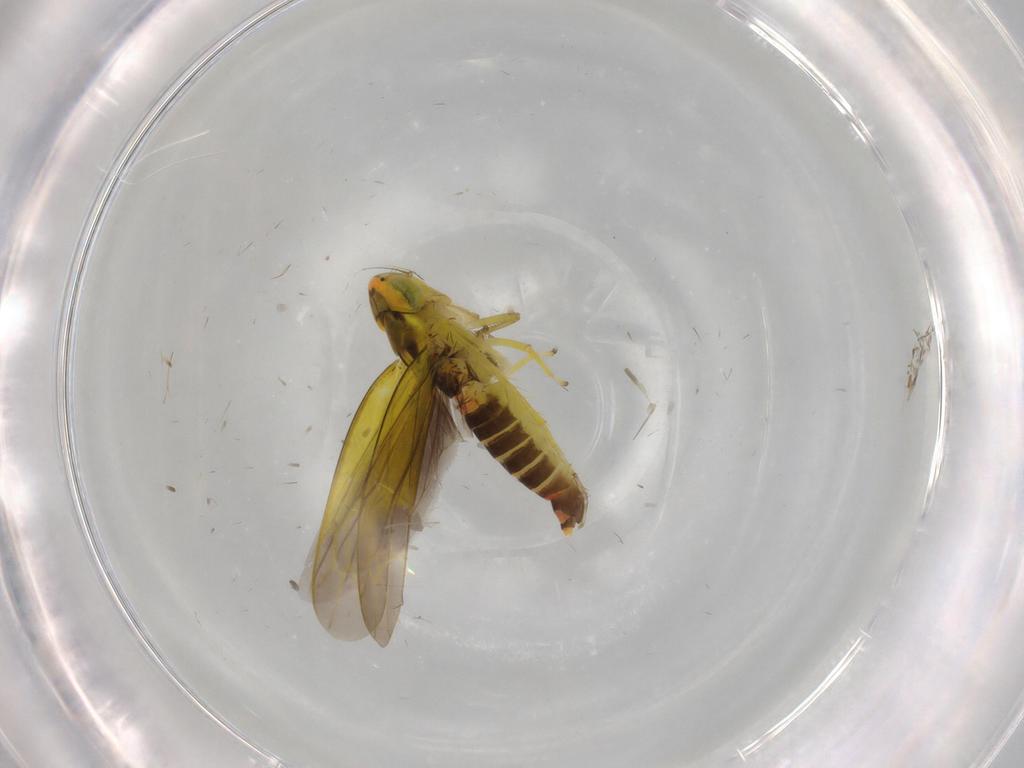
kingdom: Animalia
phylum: Arthropoda
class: Insecta
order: Hemiptera
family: Cicadellidae
